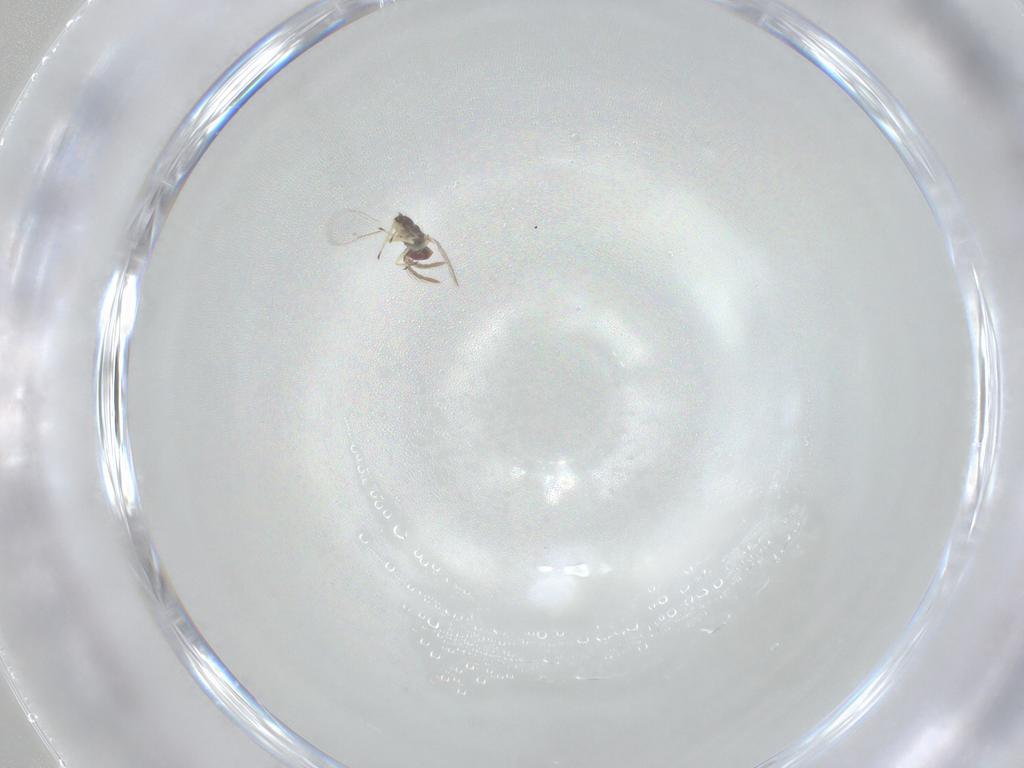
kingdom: Animalia
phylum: Arthropoda
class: Insecta
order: Hymenoptera
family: Eulophidae
